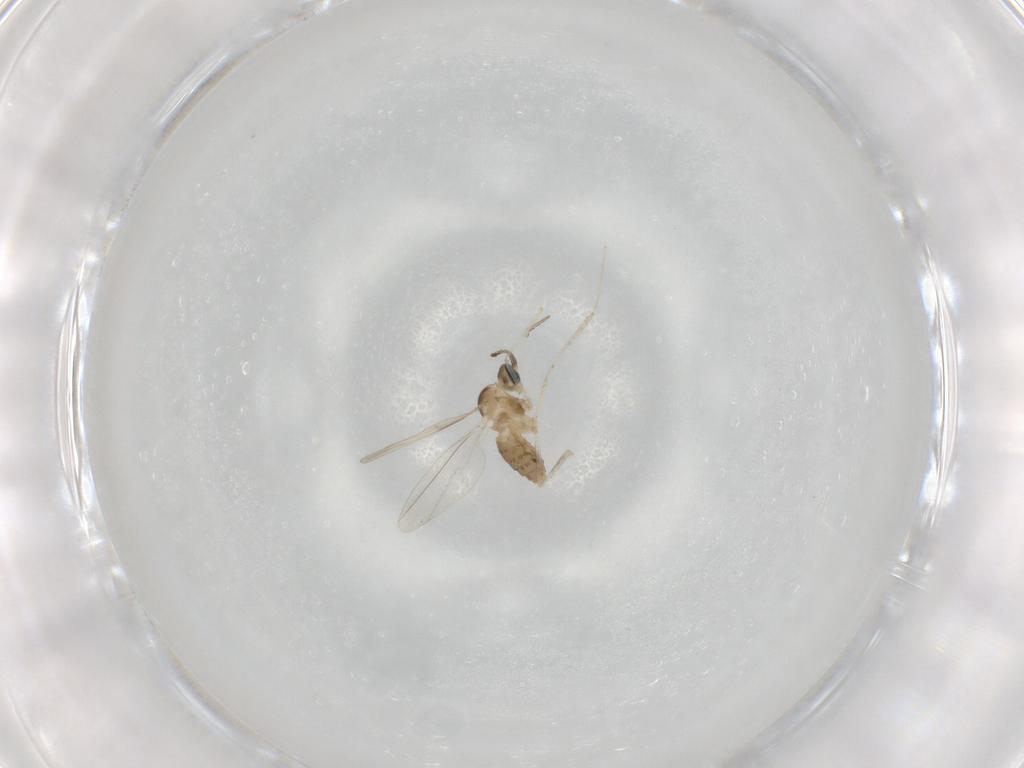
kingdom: Animalia
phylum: Arthropoda
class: Insecta
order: Diptera
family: Cecidomyiidae
